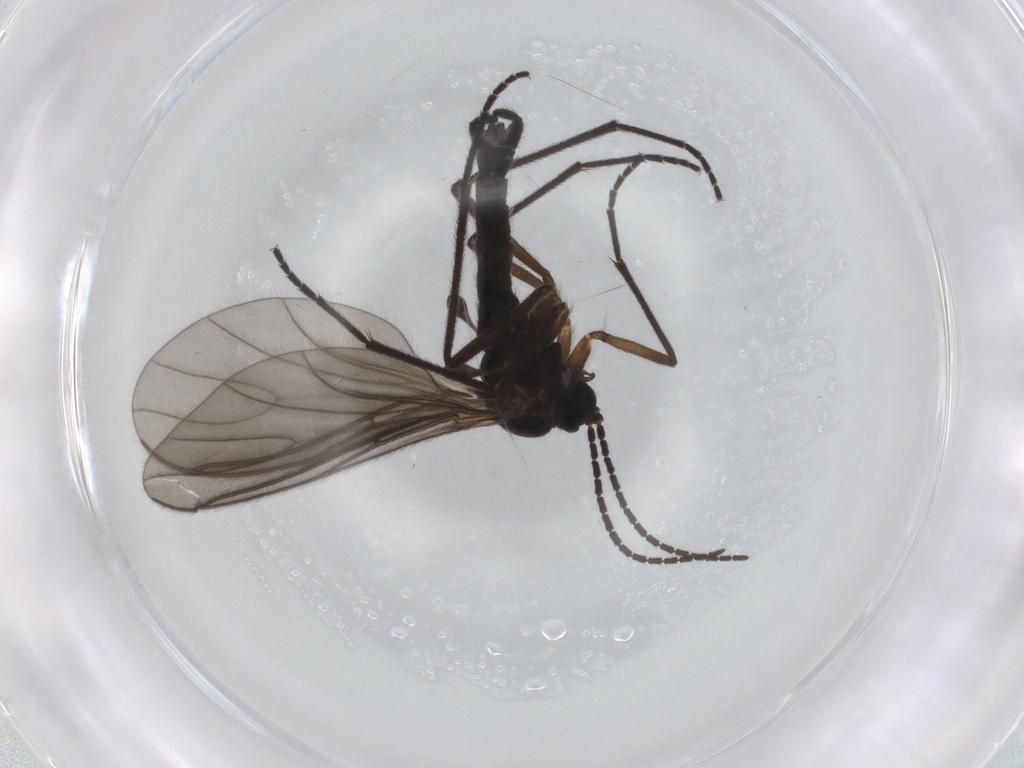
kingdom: Animalia
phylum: Arthropoda
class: Insecta
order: Diptera
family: Sciaridae
